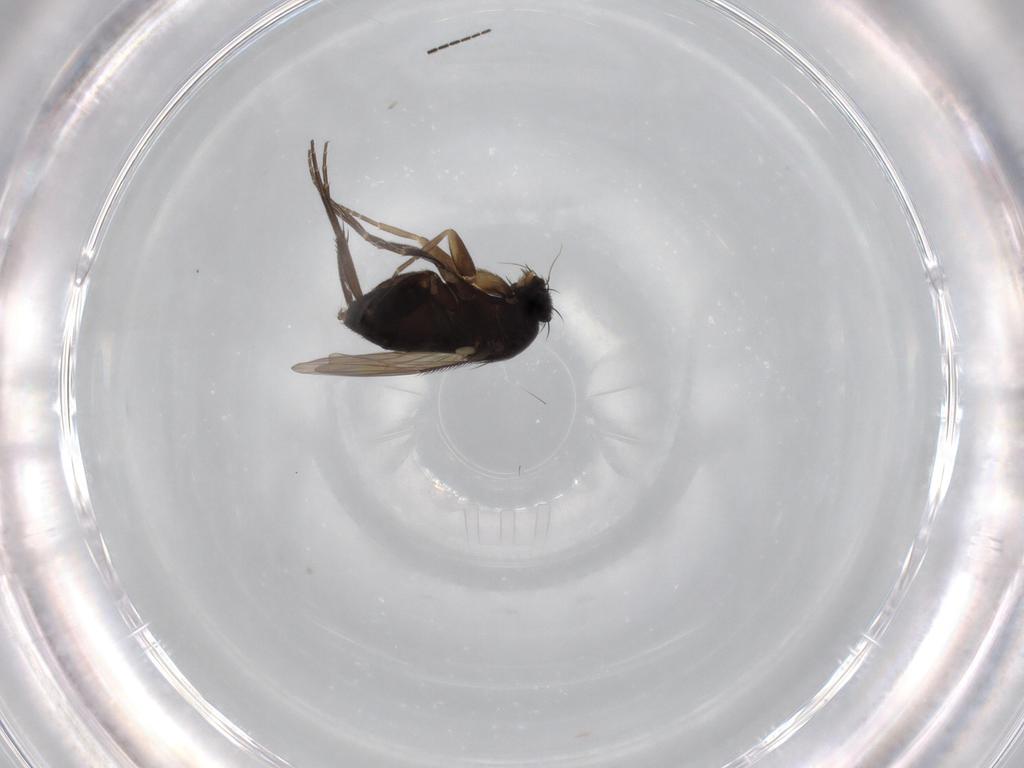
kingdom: Animalia
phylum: Arthropoda
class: Insecta
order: Diptera
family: Phoridae
